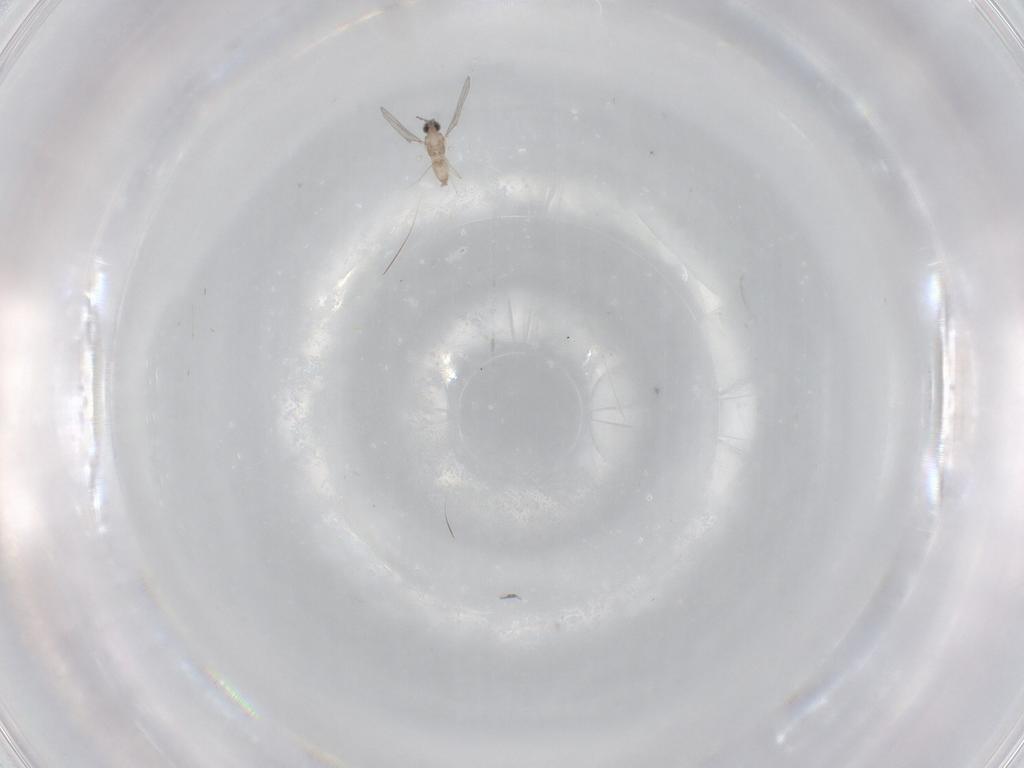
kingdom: Animalia
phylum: Arthropoda
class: Insecta
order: Diptera
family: Cecidomyiidae
